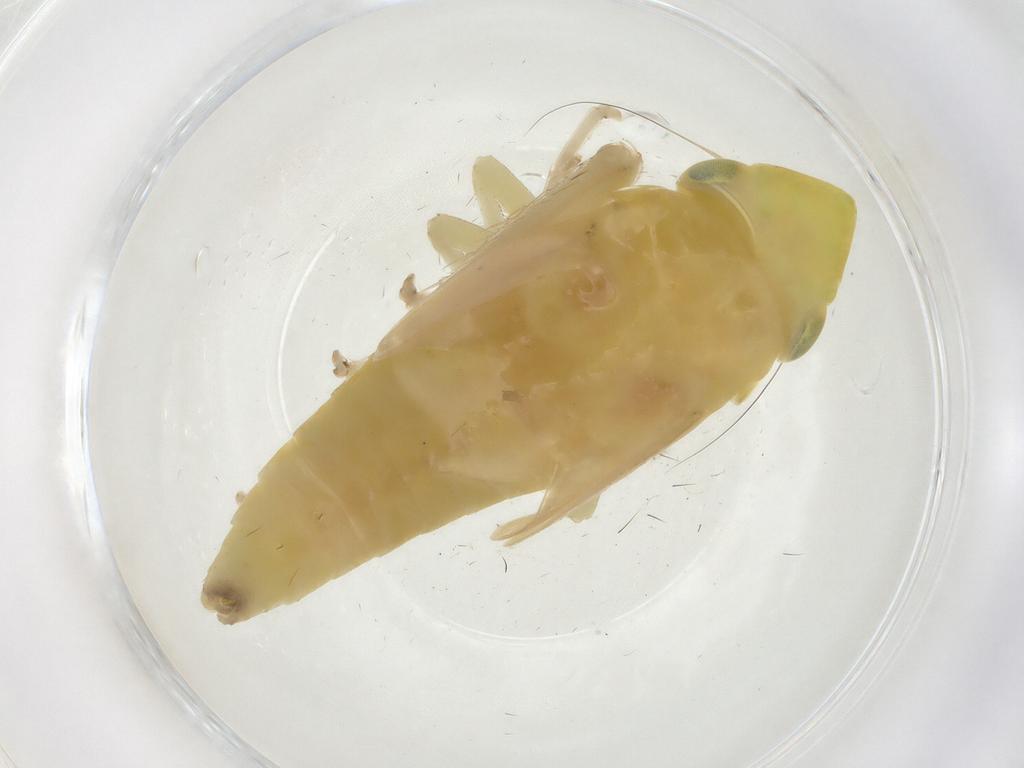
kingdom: Animalia
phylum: Arthropoda
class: Insecta
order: Hemiptera
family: Cicadellidae
